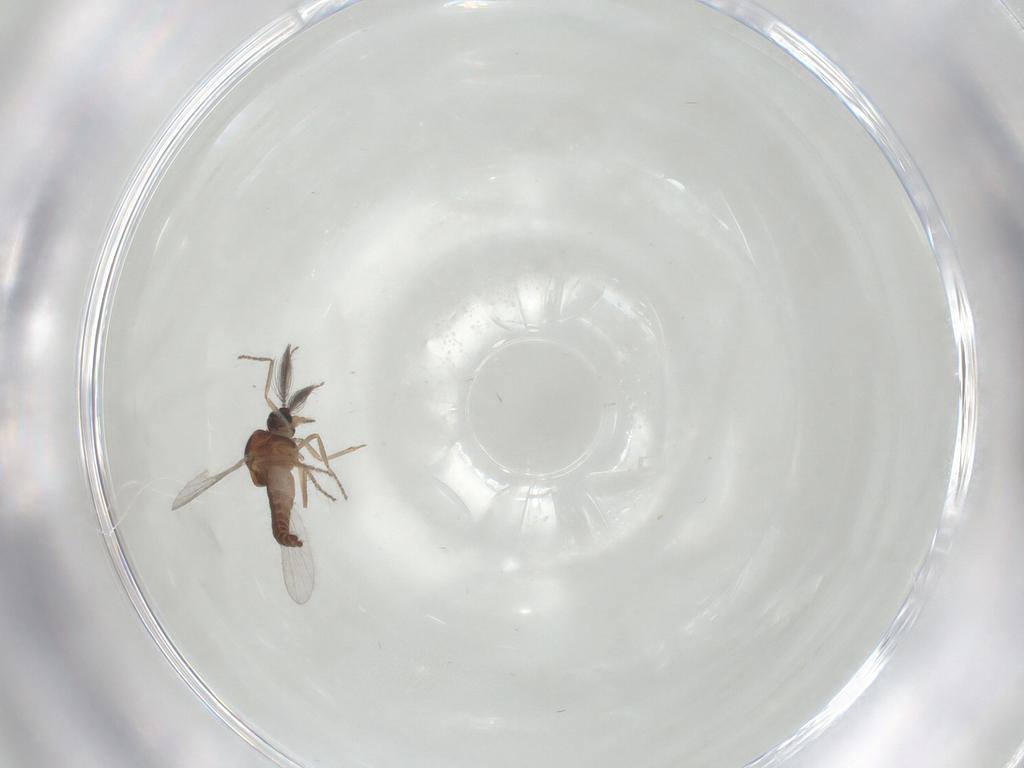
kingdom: Animalia
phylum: Arthropoda
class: Insecta
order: Diptera
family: Ceratopogonidae
